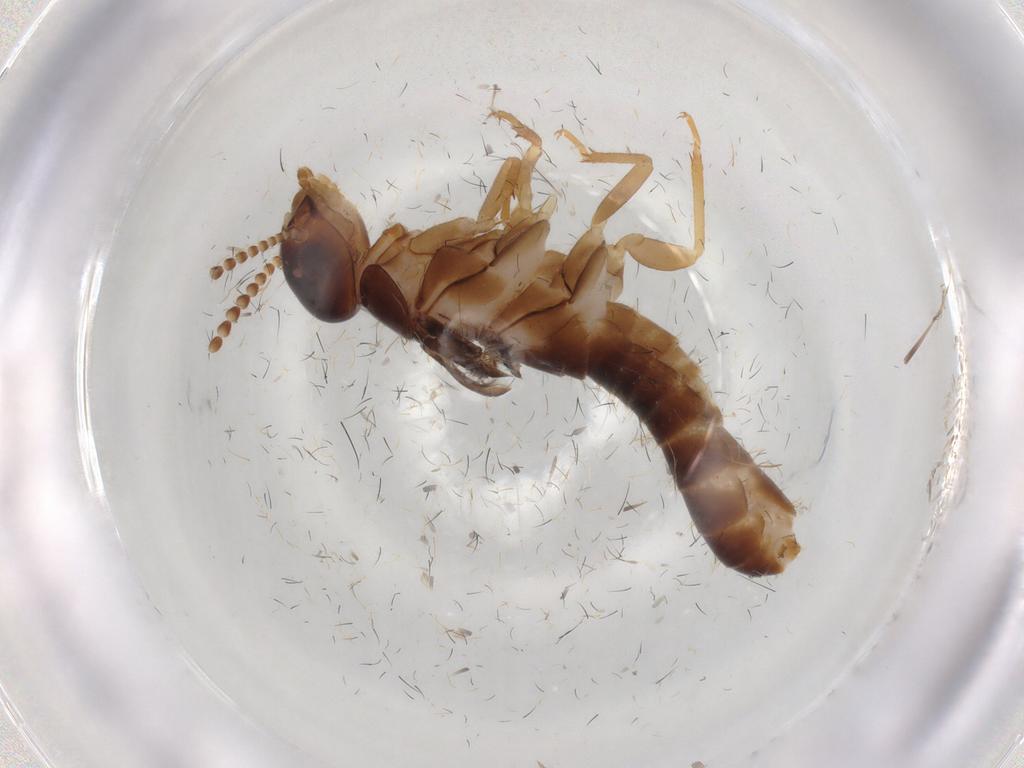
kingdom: Animalia
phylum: Arthropoda
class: Insecta
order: Blattodea
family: Kalotermitidae
